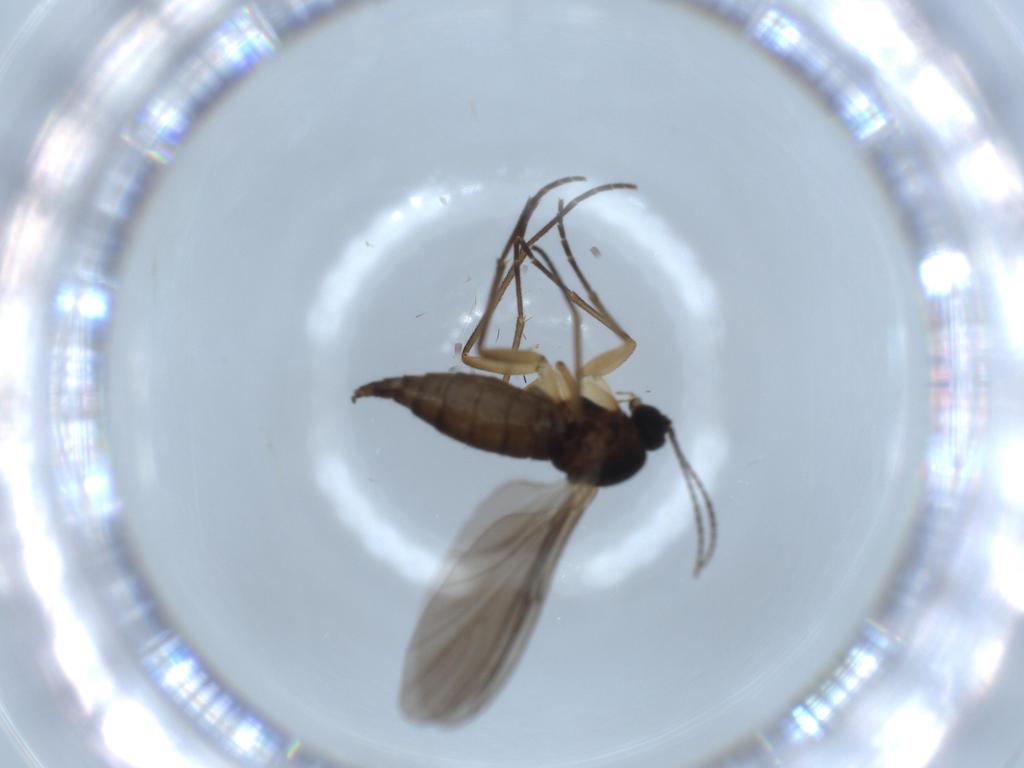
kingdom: Animalia
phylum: Arthropoda
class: Insecta
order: Diptera
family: Sciaridae
